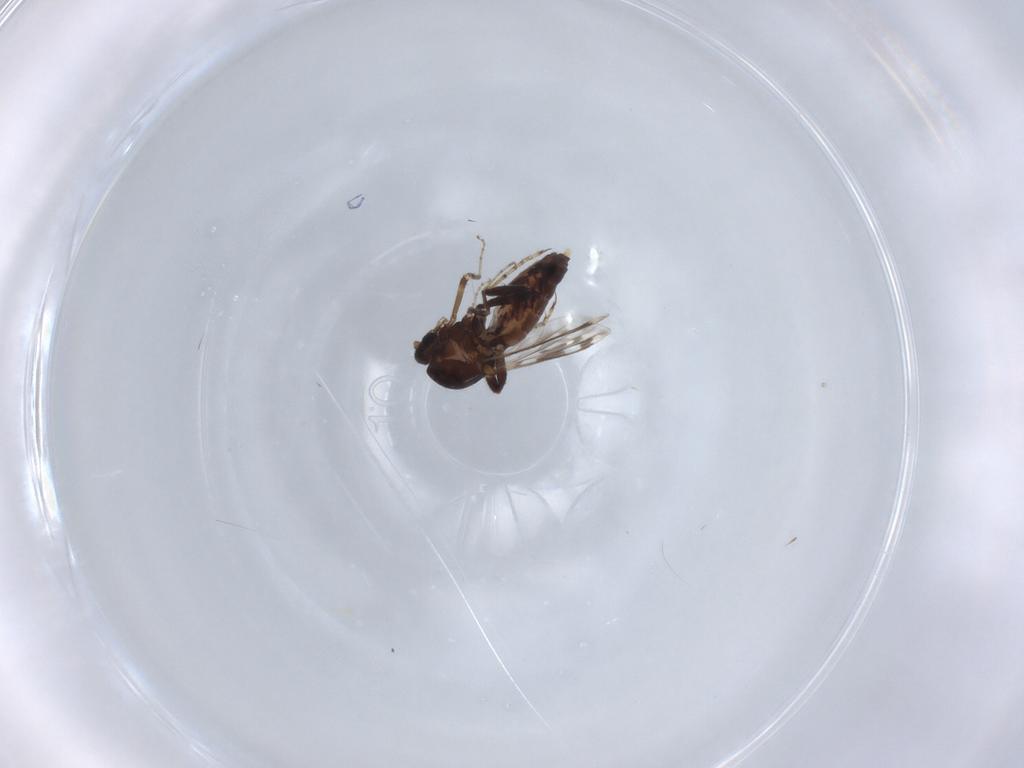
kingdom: Animalia
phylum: Arthropoda
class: Insecta
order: Diptera
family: Ceratopogonidae
